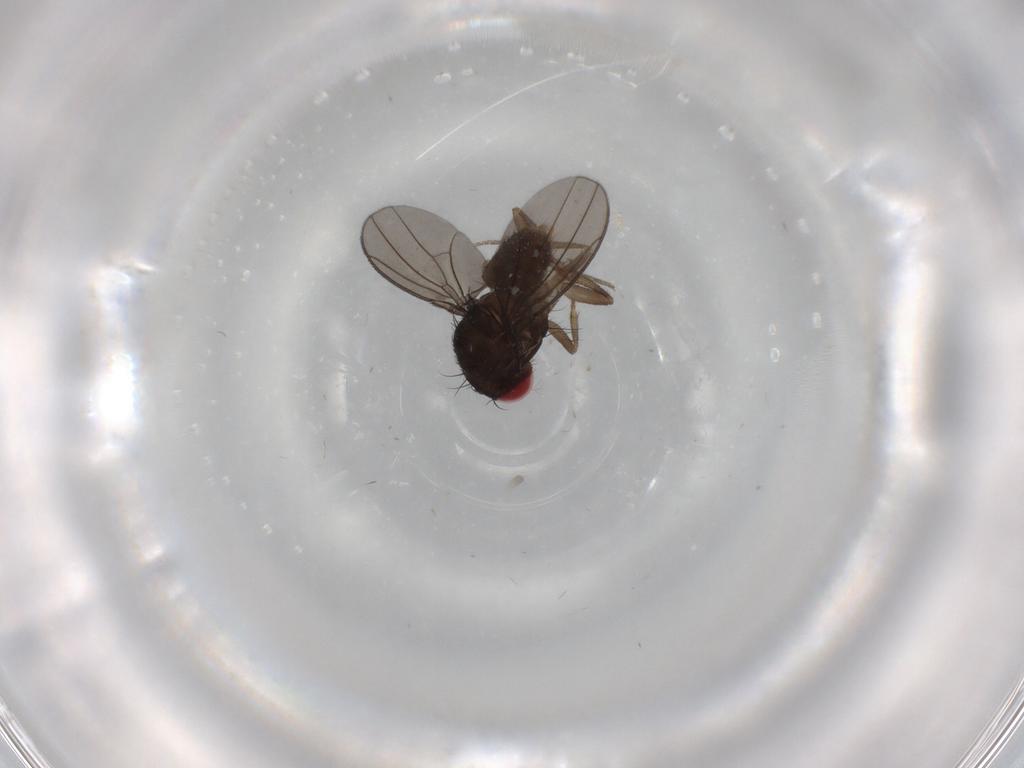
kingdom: Animalia
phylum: Arthropoda
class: Insecta
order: Diptera
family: Drosophilidae
